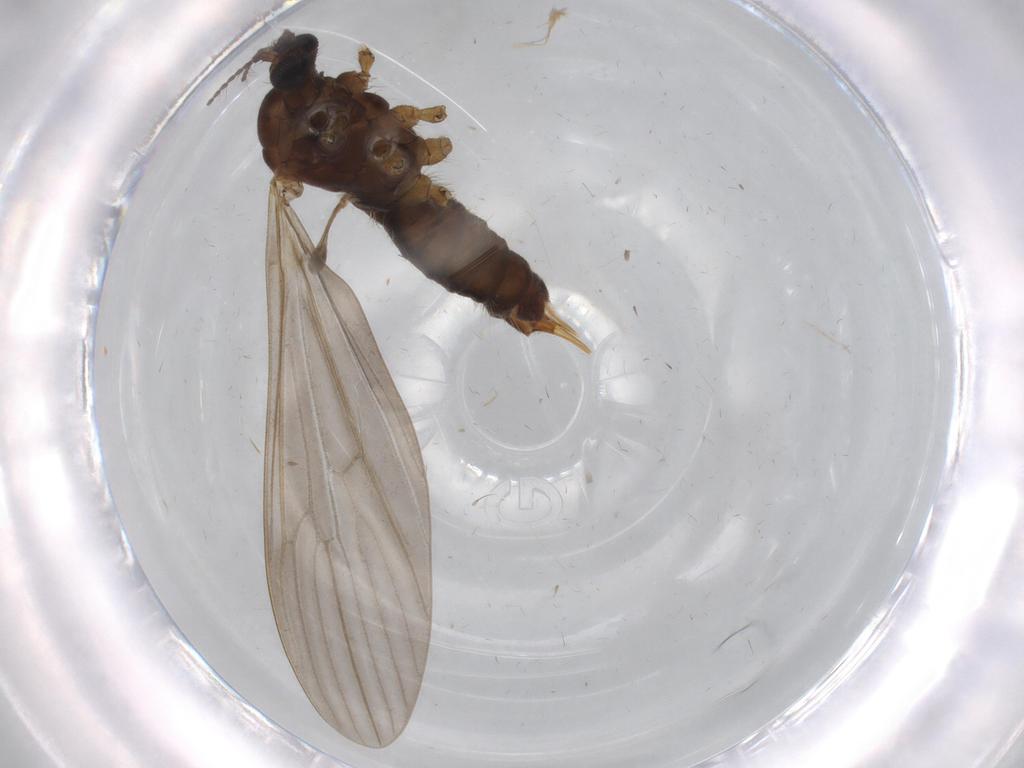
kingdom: Animalia
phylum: Arthropoda
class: Insecta
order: Diptera
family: Limoniidae
